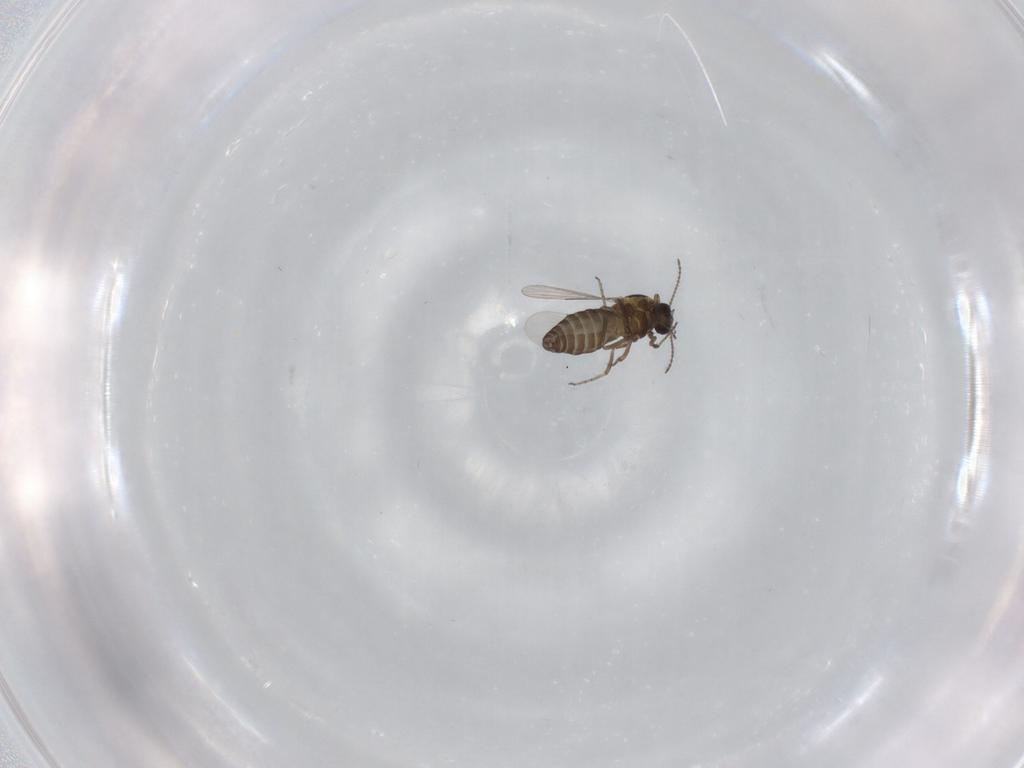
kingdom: Animalia
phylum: Arthropoda
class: Insecta
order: Diptera
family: Ceratopogonidae
